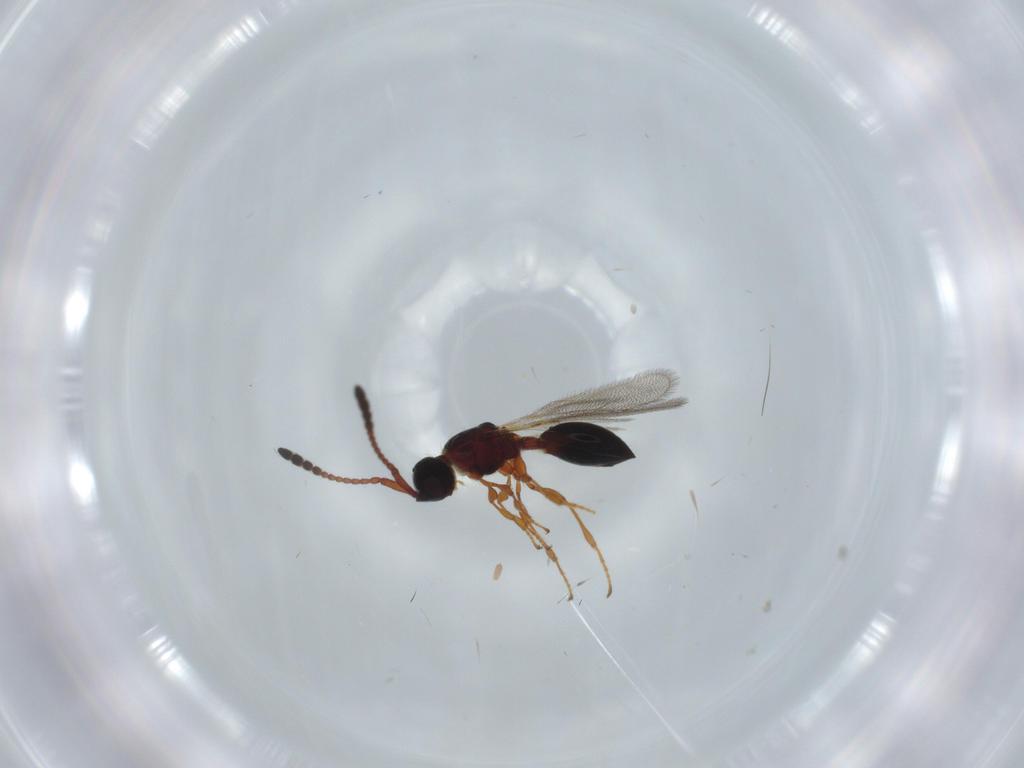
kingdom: Animalia
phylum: Arthropoda
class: Insecta
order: Hymenoptera
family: Diapriidae
